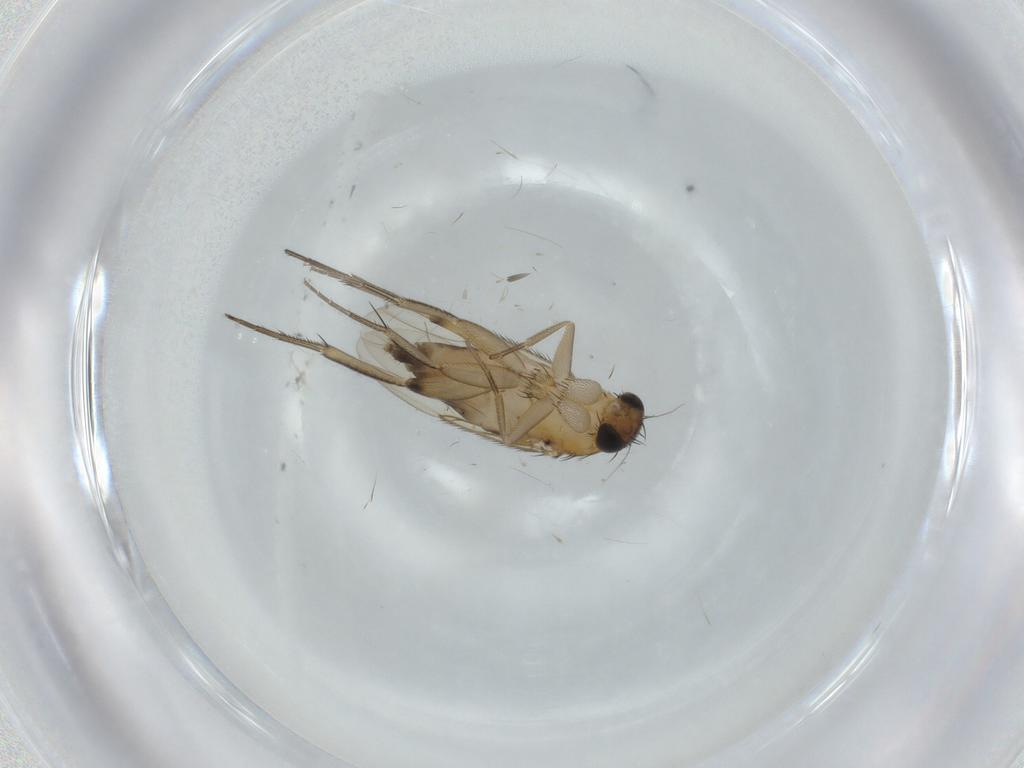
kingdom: Animalia
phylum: Arthropoda
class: Insecta
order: Diptera
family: Phoridae
